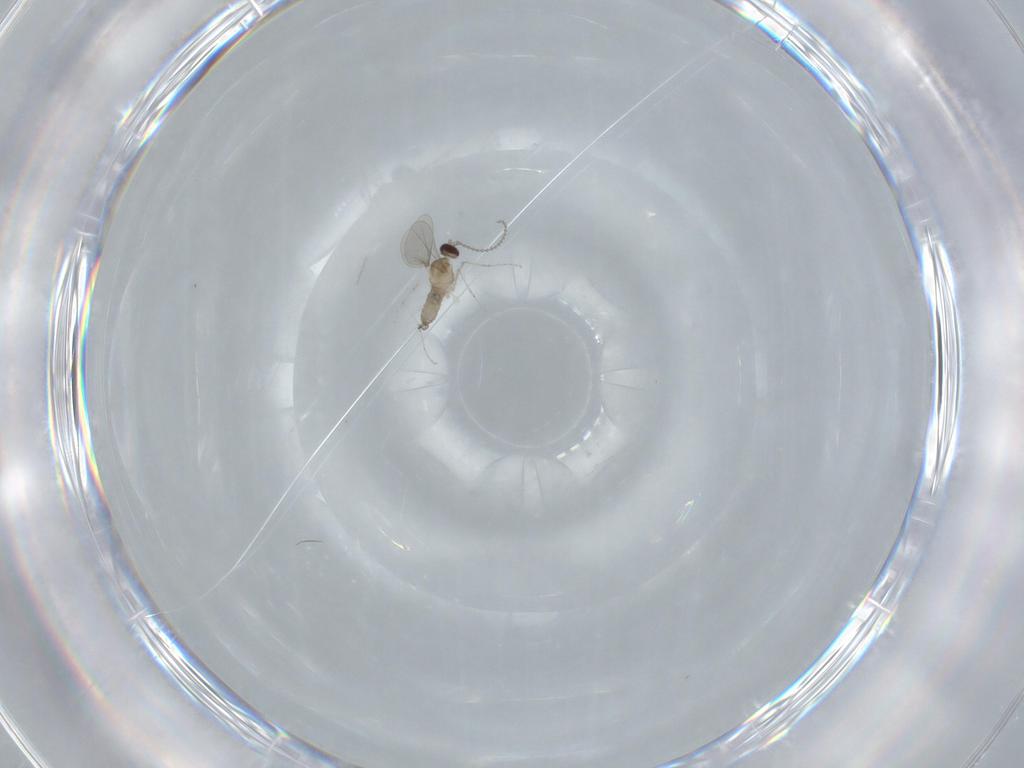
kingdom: Animalia
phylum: Arthropoda
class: Insecta
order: Diptera
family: Cecidomyiidae
